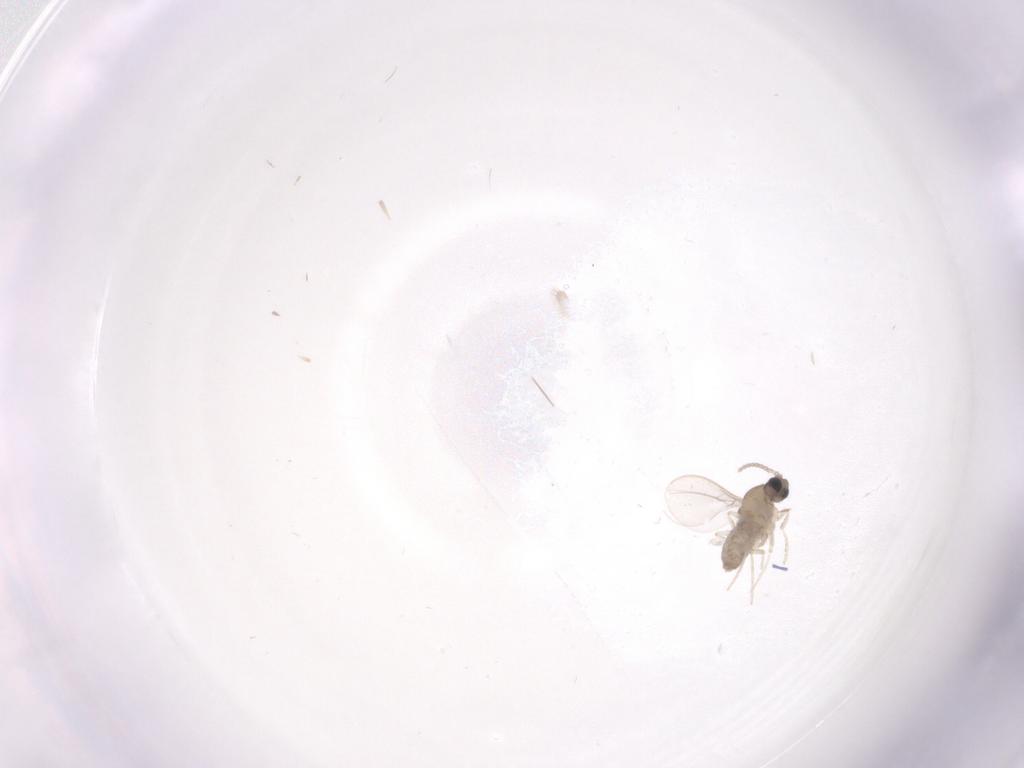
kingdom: Animalia
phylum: Arthropoda
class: Insecta
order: Diptera
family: Cecidomyiidae
